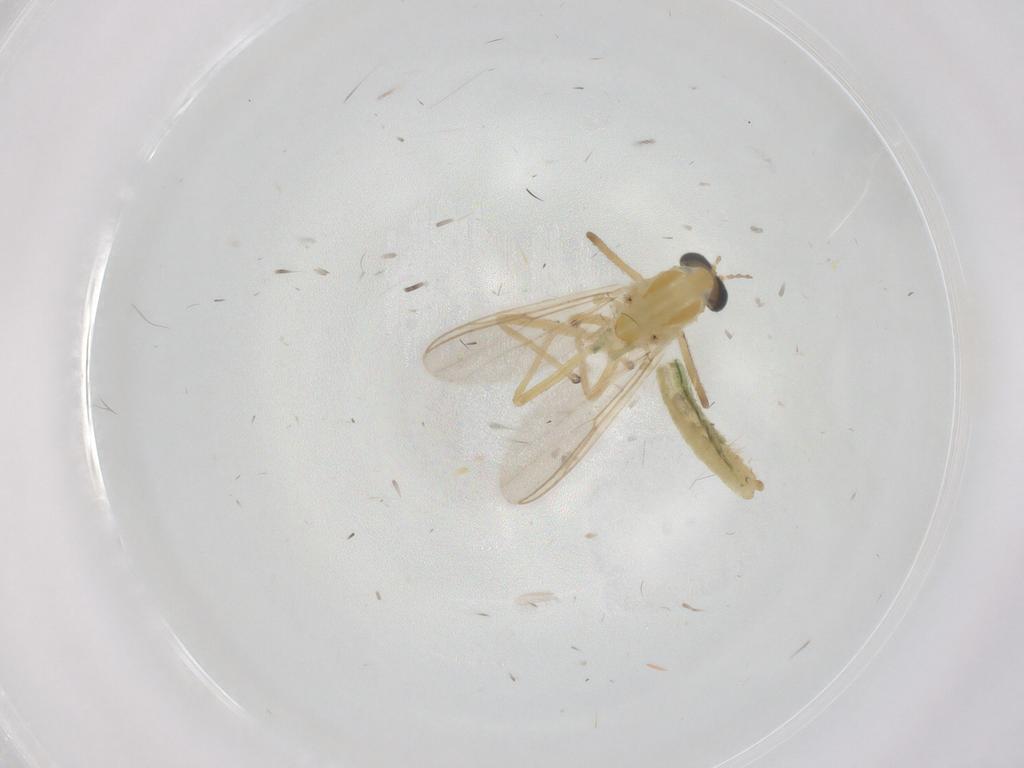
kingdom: Animalia
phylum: Arthropoda
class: Insecta
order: Diptera
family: Chironomidae
